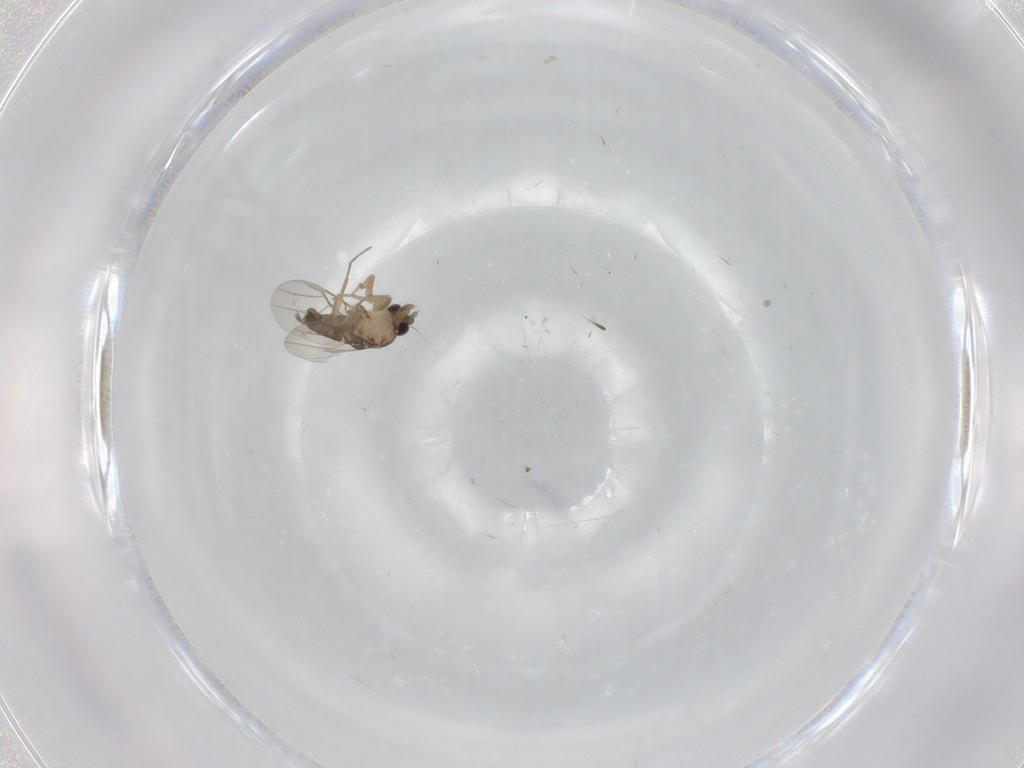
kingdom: Animalia
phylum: Arthropoda
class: Insecta
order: Diptera
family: Phoridae
